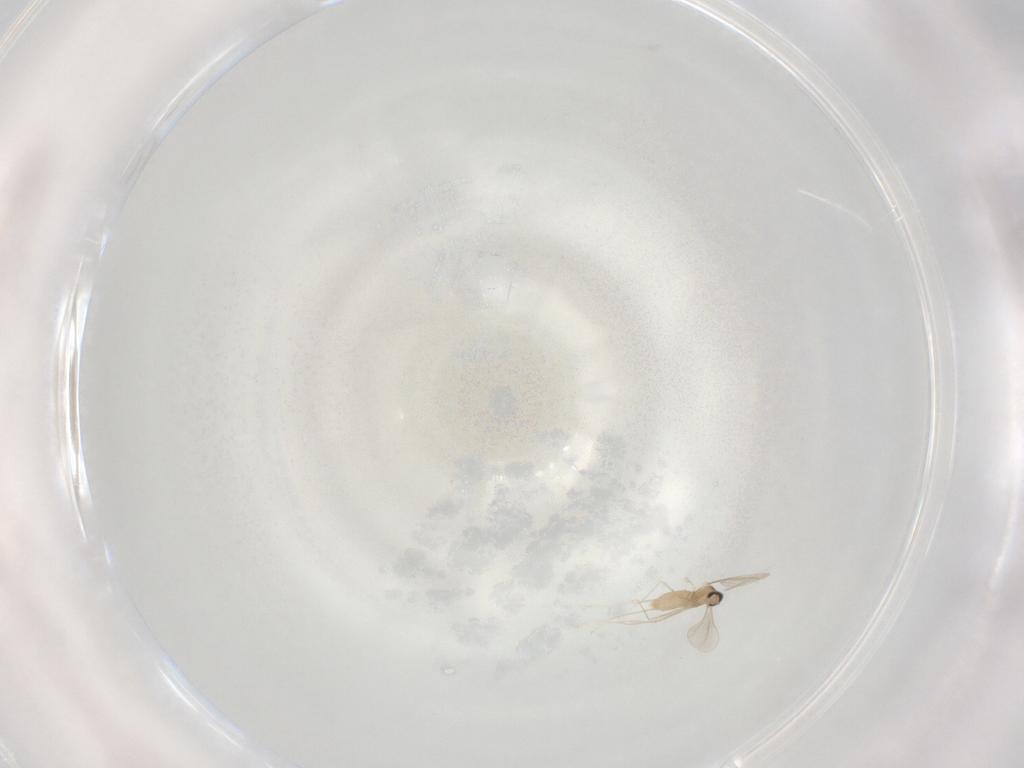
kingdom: Animalia
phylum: Arthropoda
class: Insecta
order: Diptera
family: Cecidomyiidae
